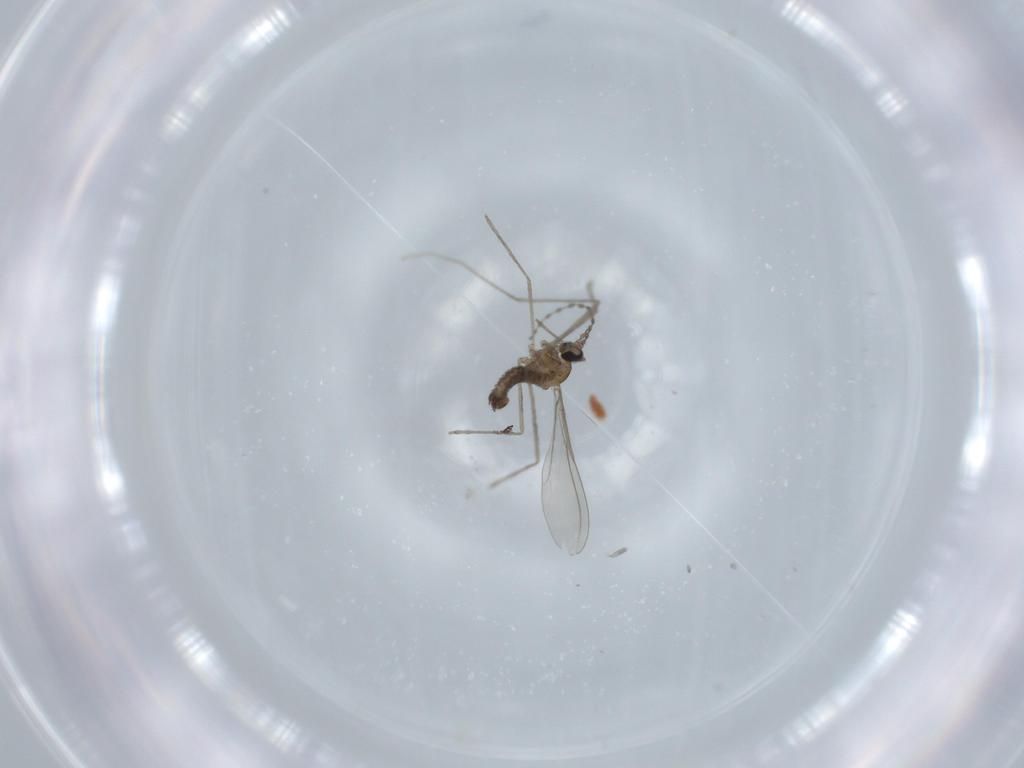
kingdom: Animalia
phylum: Arthropoda
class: Insecta
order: Diptera
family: Cecidomyiidae
